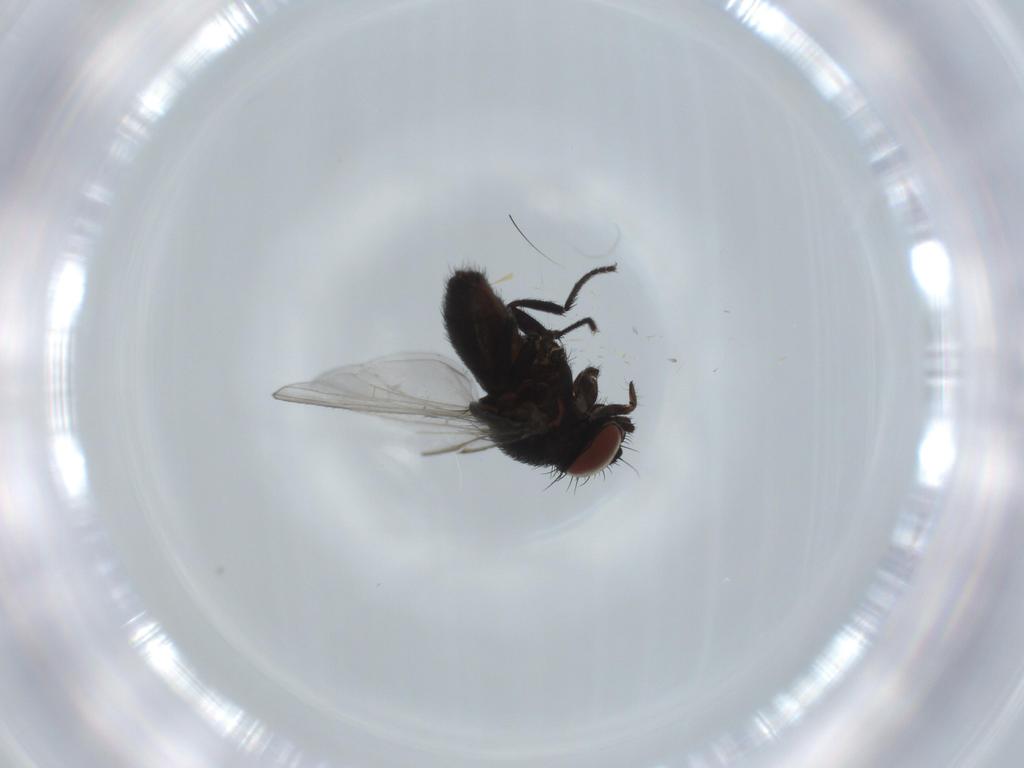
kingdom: Animalia
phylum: Arthropoda
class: Insecta
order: Diptera
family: Milichiidae
